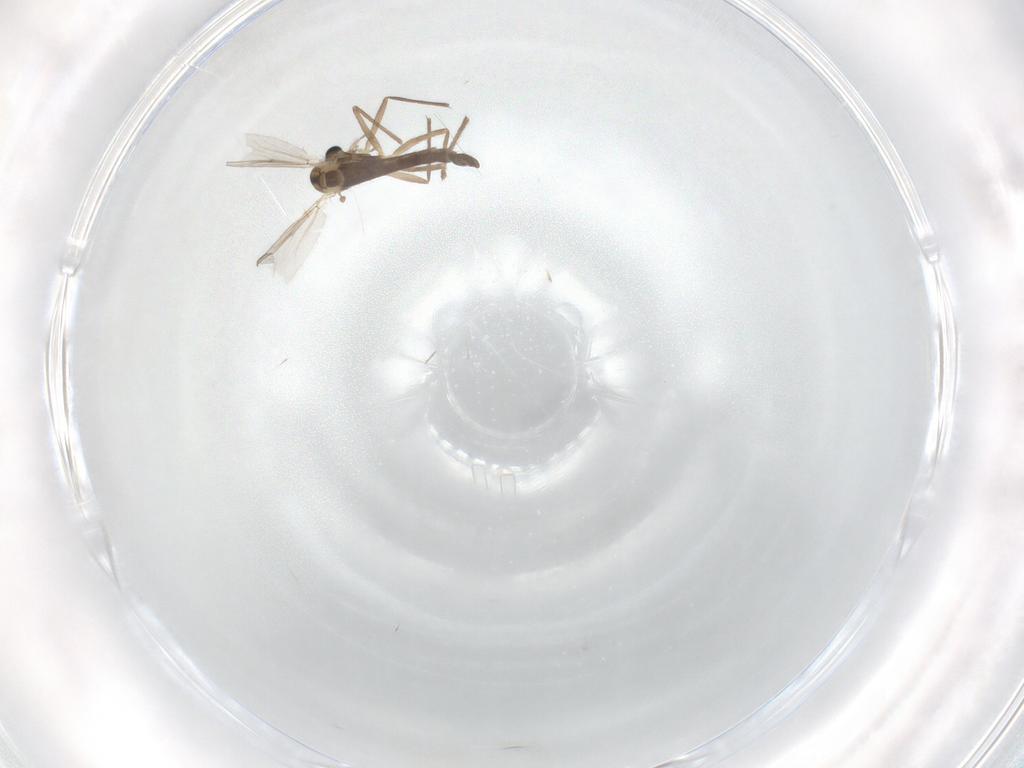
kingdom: Animalia
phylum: Arthropoda
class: Insecta
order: Diptera
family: Chironomidae
